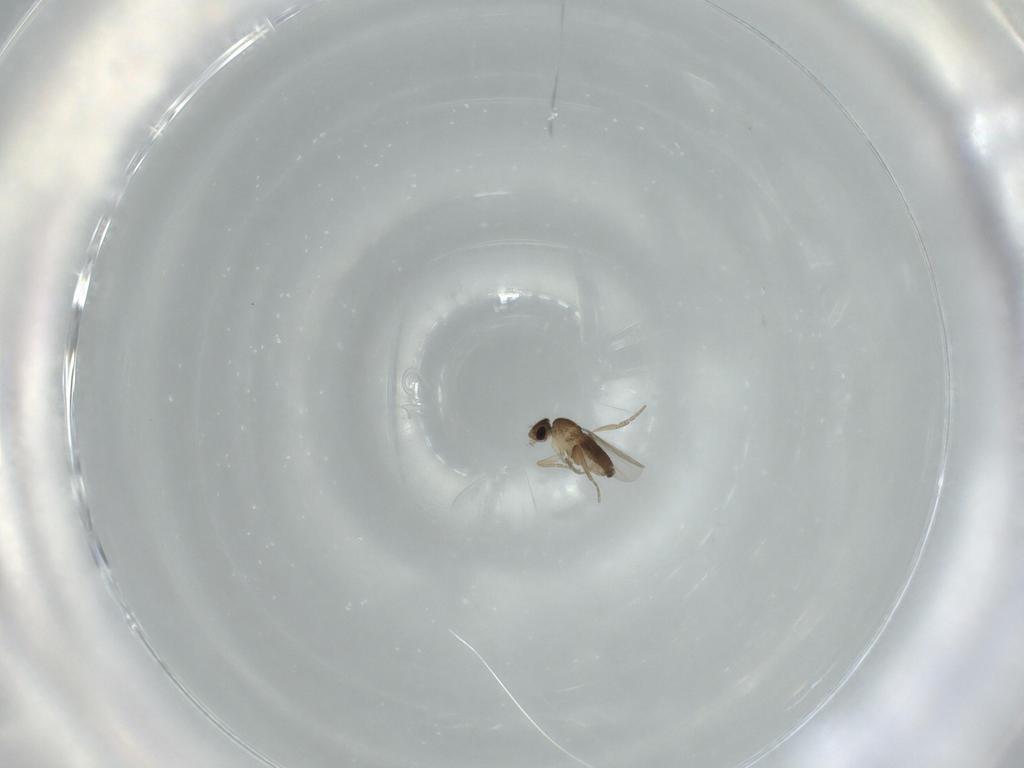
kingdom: Animalia
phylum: Arthropoda
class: Insecta
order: Diptera
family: Phoridae
